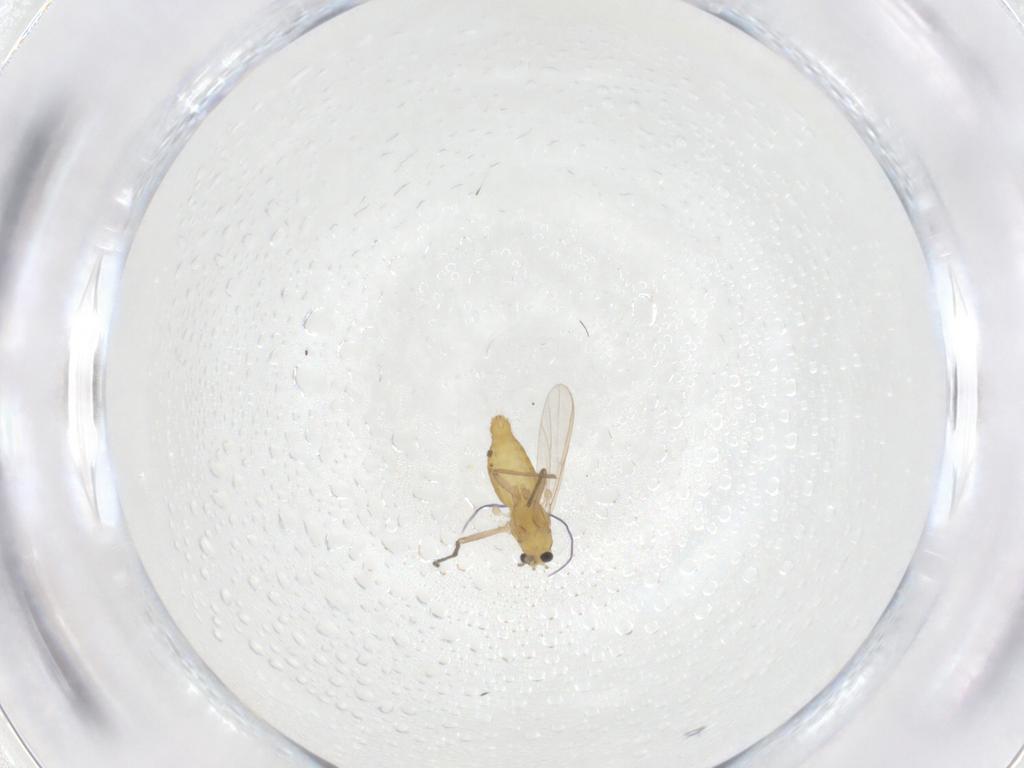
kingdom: Animalia
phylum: Arthropoda
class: Insecta
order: Diptera
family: Chironomidae
